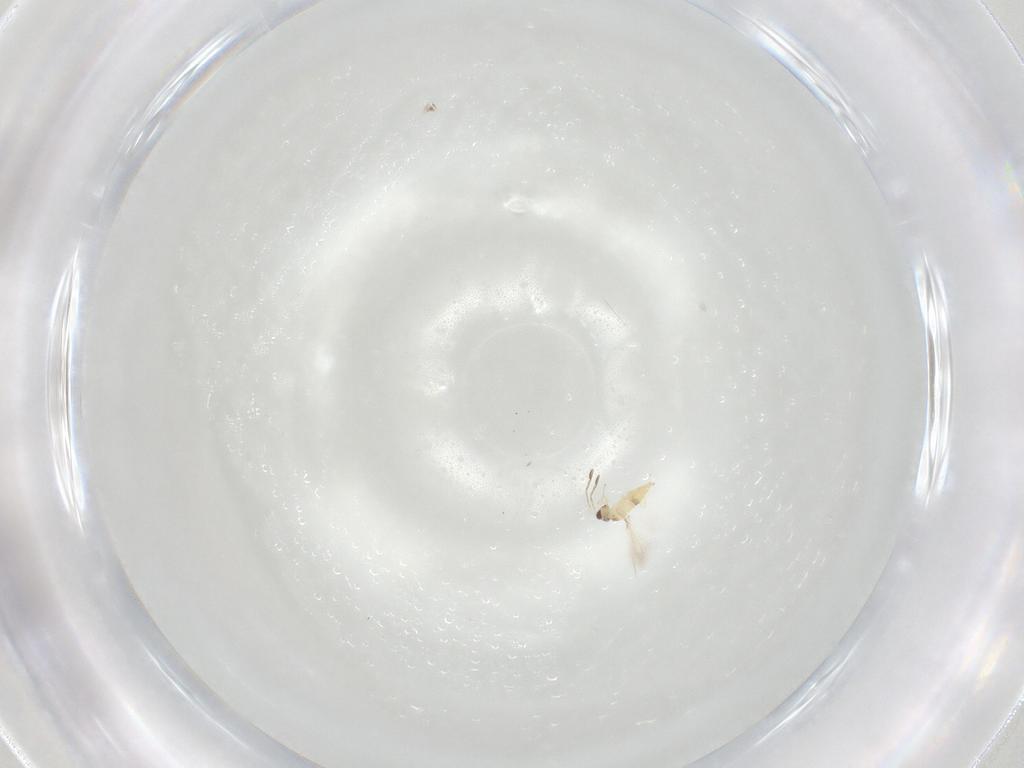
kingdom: Animalia
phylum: Arthropoda
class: Insecta
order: Hymenoptera
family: Mymaridae
